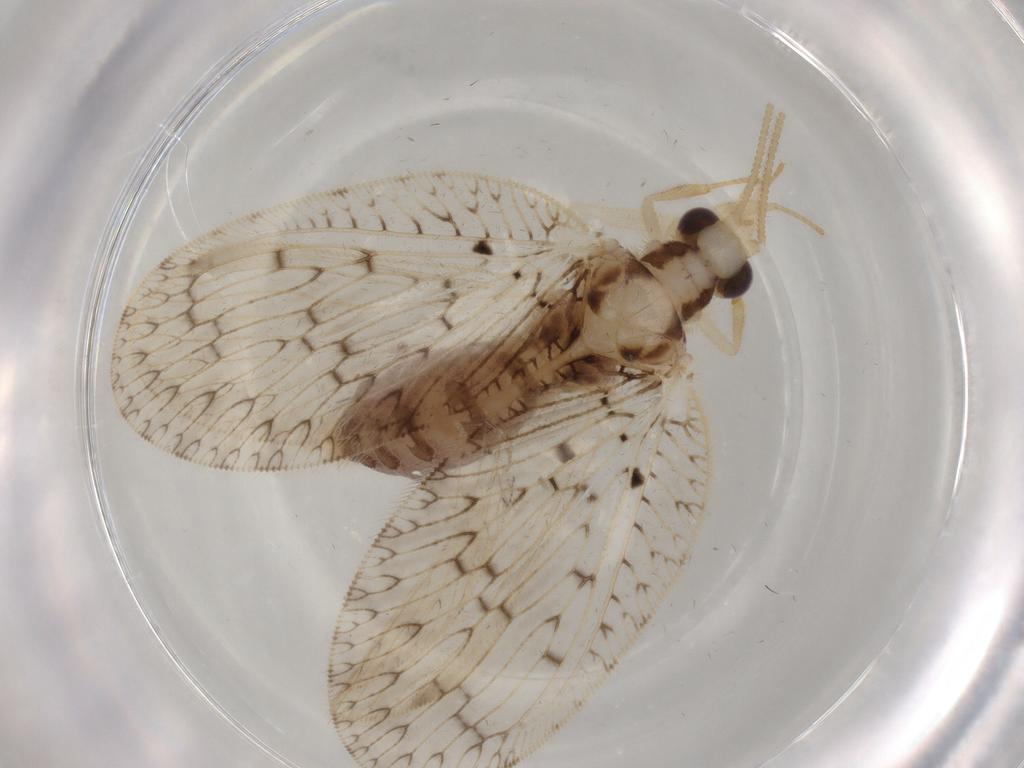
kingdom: Animalia
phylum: Arthropoda
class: Insecta
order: Neuroptera
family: Hemerobiidae
